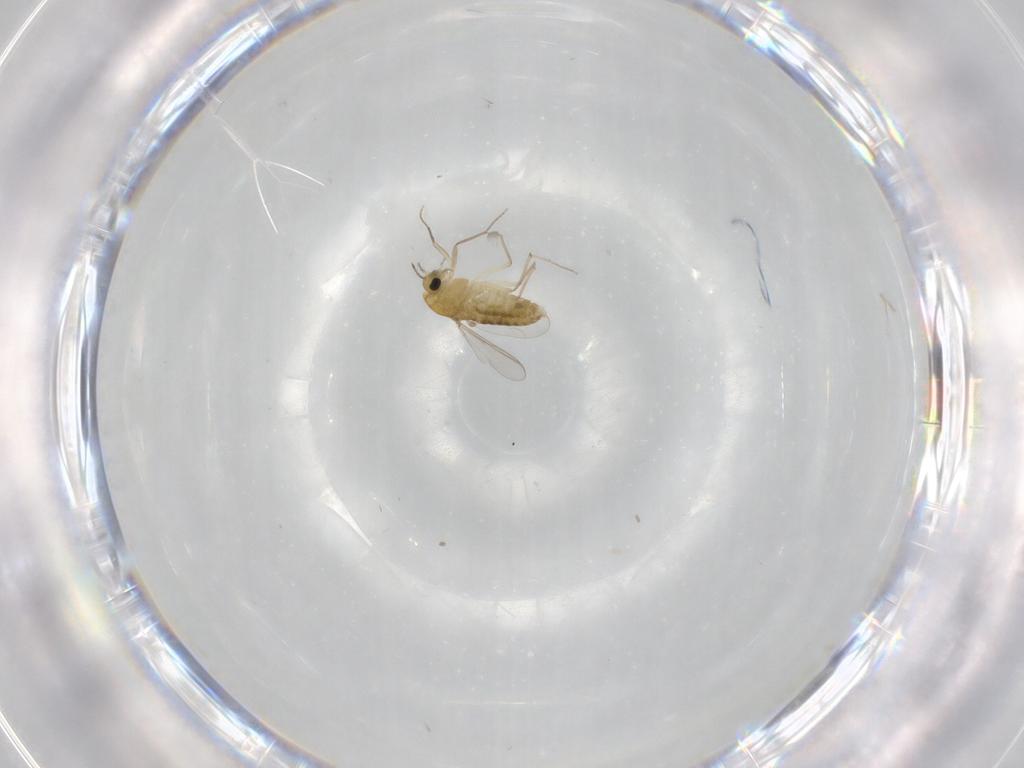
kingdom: Animalia
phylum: Arthropoda
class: Insecta
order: Diptera
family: Chironomidae
